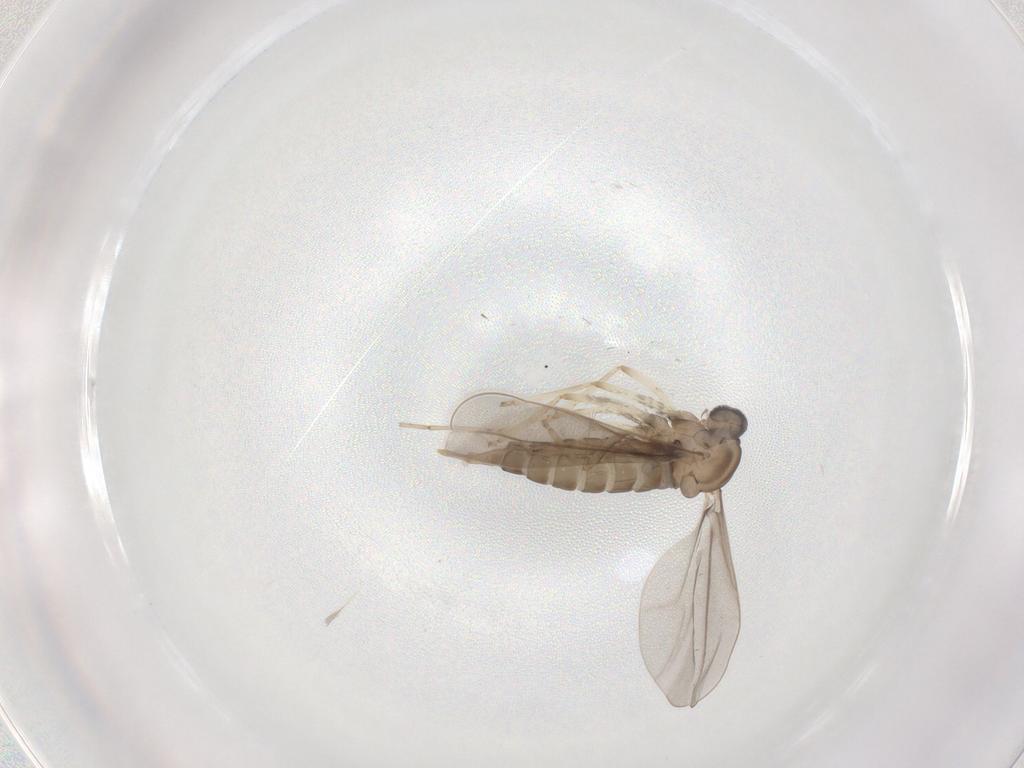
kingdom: Animalia
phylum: Arthropoda
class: Insecta
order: Diptera
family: Cecidomyiidae
